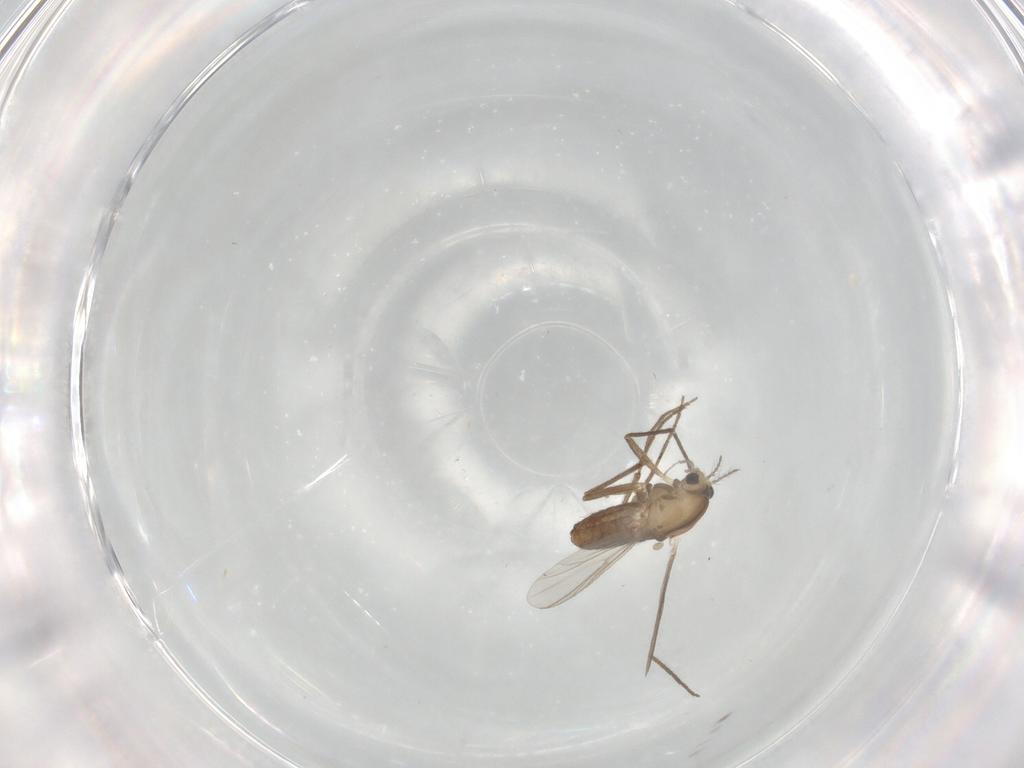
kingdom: Animalia
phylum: Arthropoda
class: Insecta
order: Diptera
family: Chironomidae
